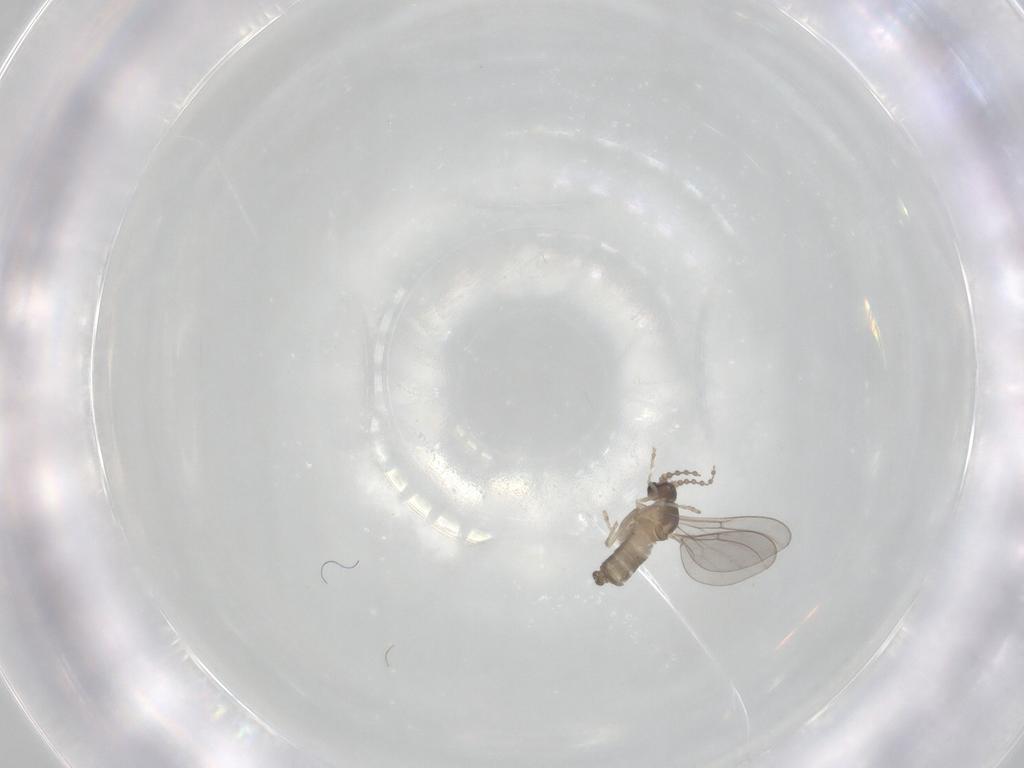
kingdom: Animalia
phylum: Arthropoda
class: Insecta
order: Diptera
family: Cecidomyiidae
